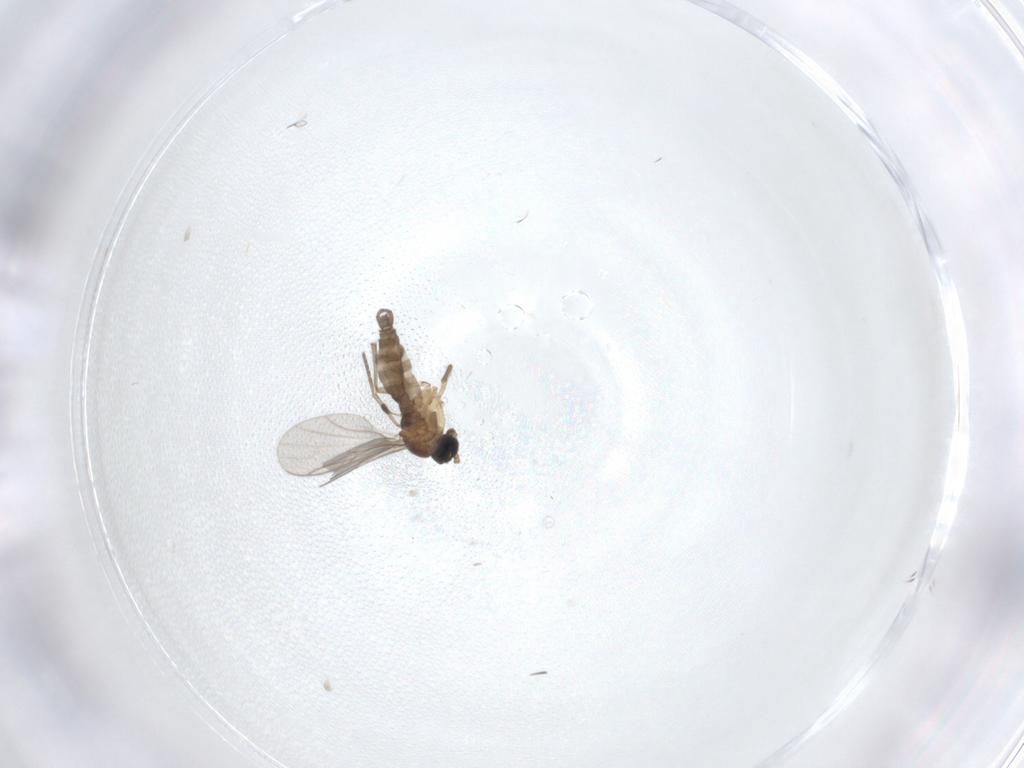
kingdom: Animalia
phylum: Arthropoda
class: Insecta
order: Diptera
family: Sciaridae
